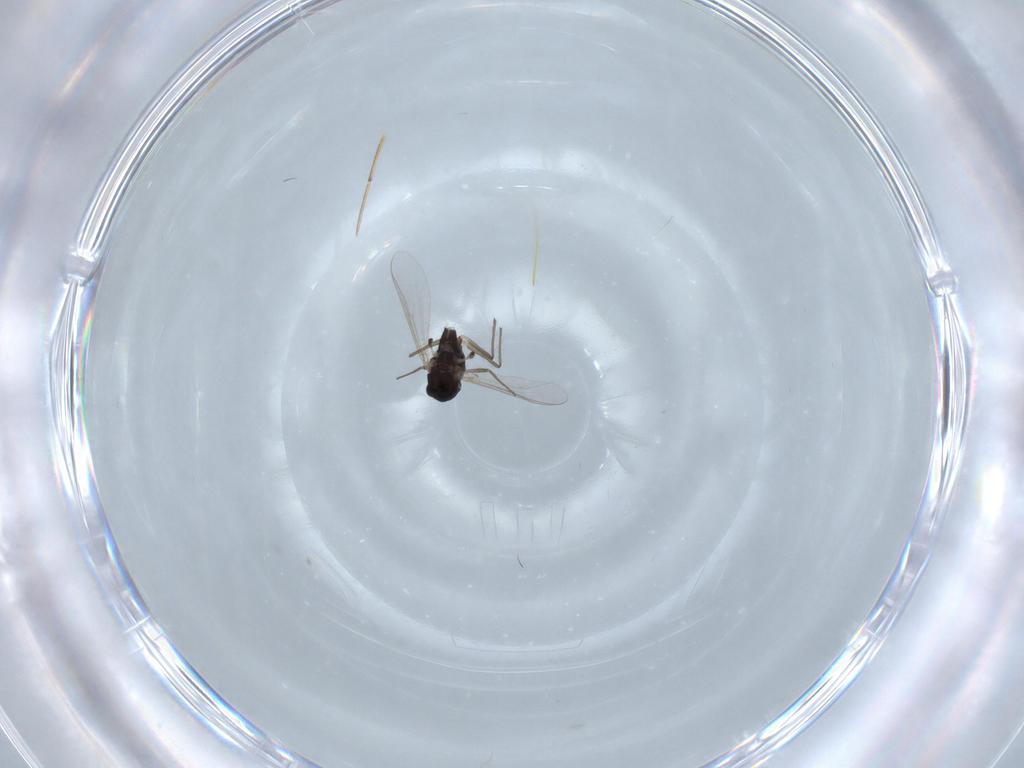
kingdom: Animalia
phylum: Arthropoda
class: Insecta
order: Diptera
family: Chironomidae
